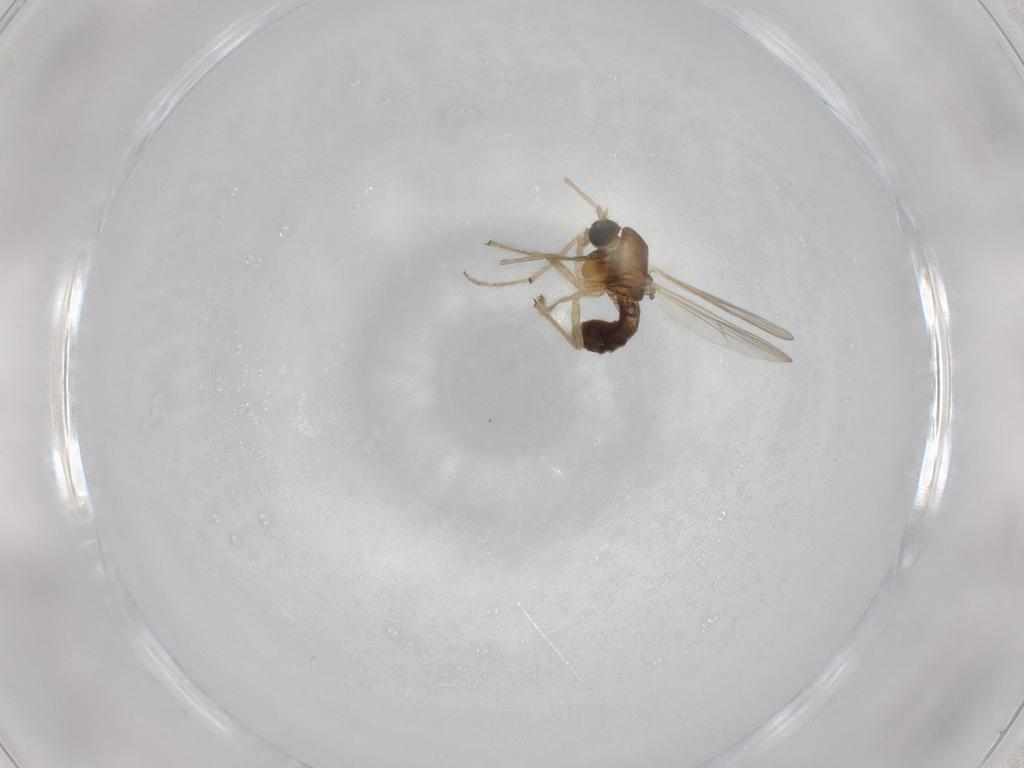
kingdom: Animalia
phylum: Arthropoda
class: Insecta
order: Diptera
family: Chironomidae
